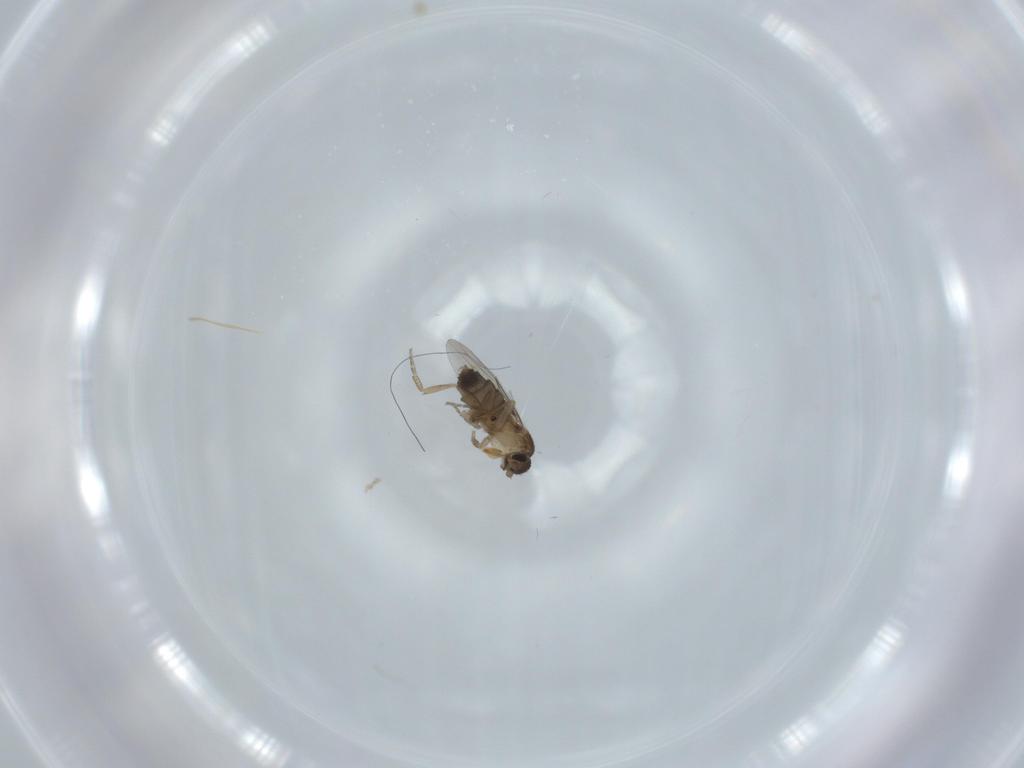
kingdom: Animalia
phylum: Arthropoda
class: Insecta
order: Diptera
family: Phoridae
